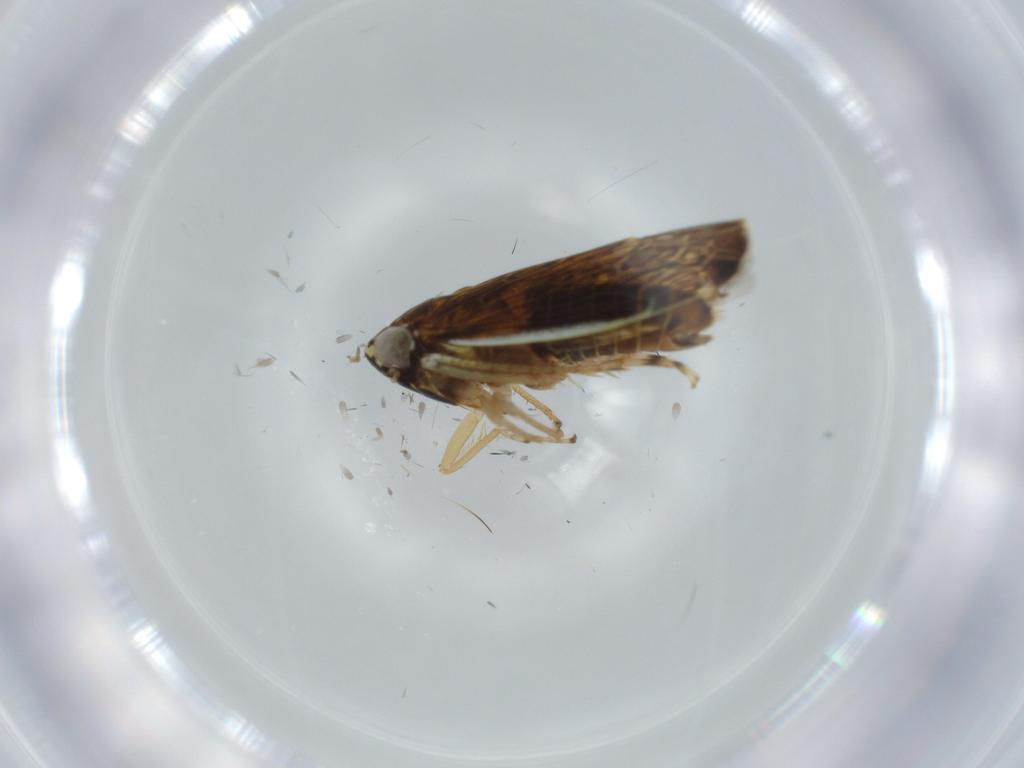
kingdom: Animalia
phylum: Arthropoda
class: Insecta
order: Hemiptera
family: Cicadellidae
